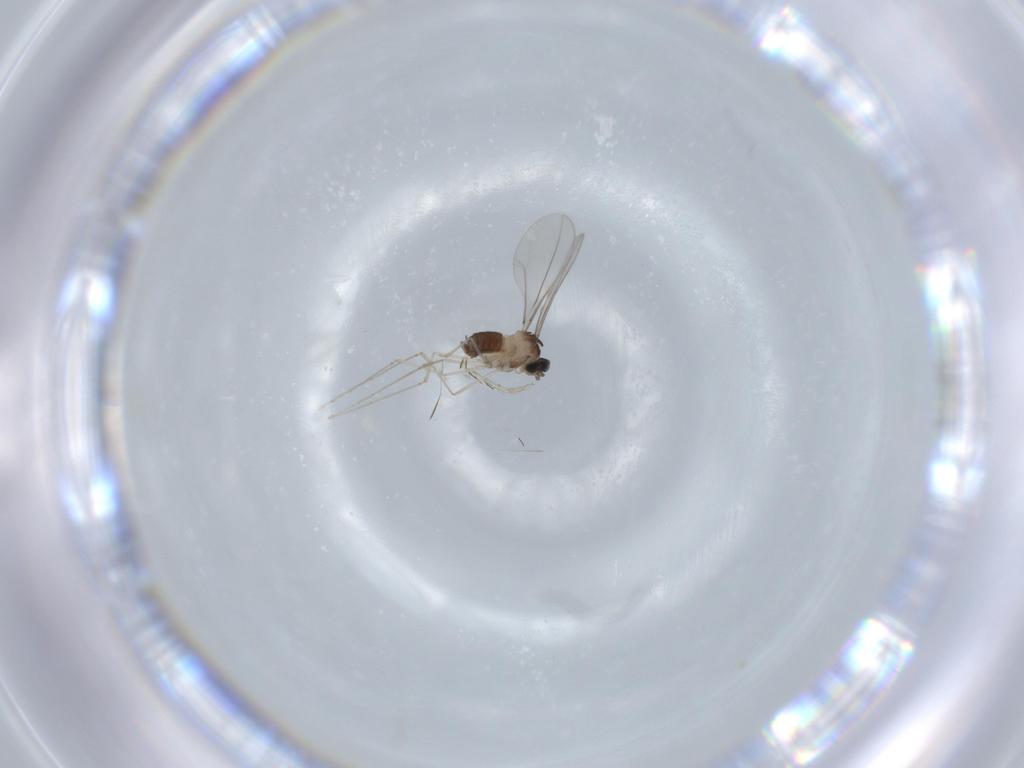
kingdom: Animalia
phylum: Arthropoda
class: Insecta
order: Diptera
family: Cecidomyiidae
